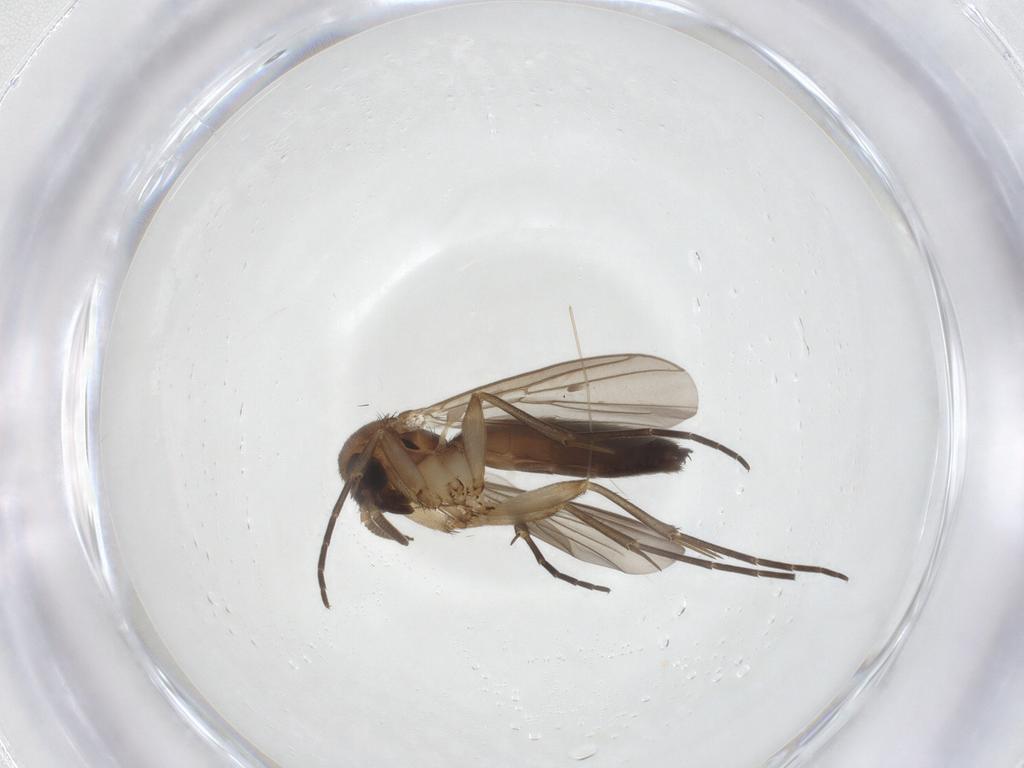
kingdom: Animalia
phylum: Arthropoda
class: Insecta
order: Diptera
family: Mycetophilidae
